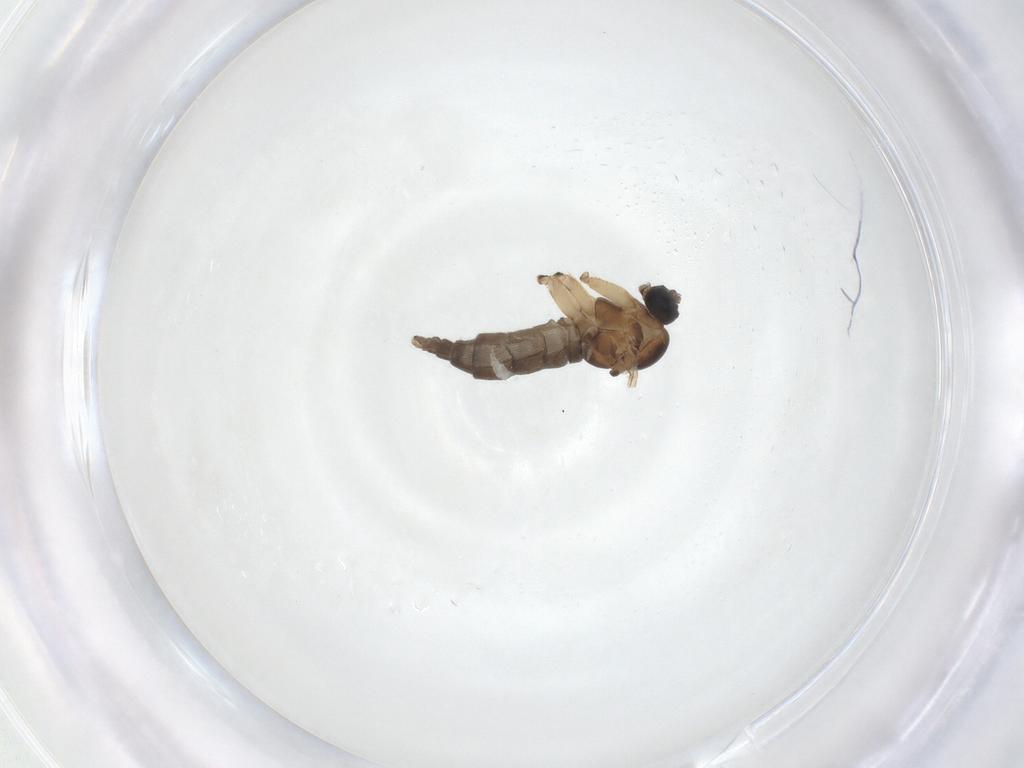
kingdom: Animalia
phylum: Arthropoda
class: Insecta
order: Diptera
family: Sciaridae
